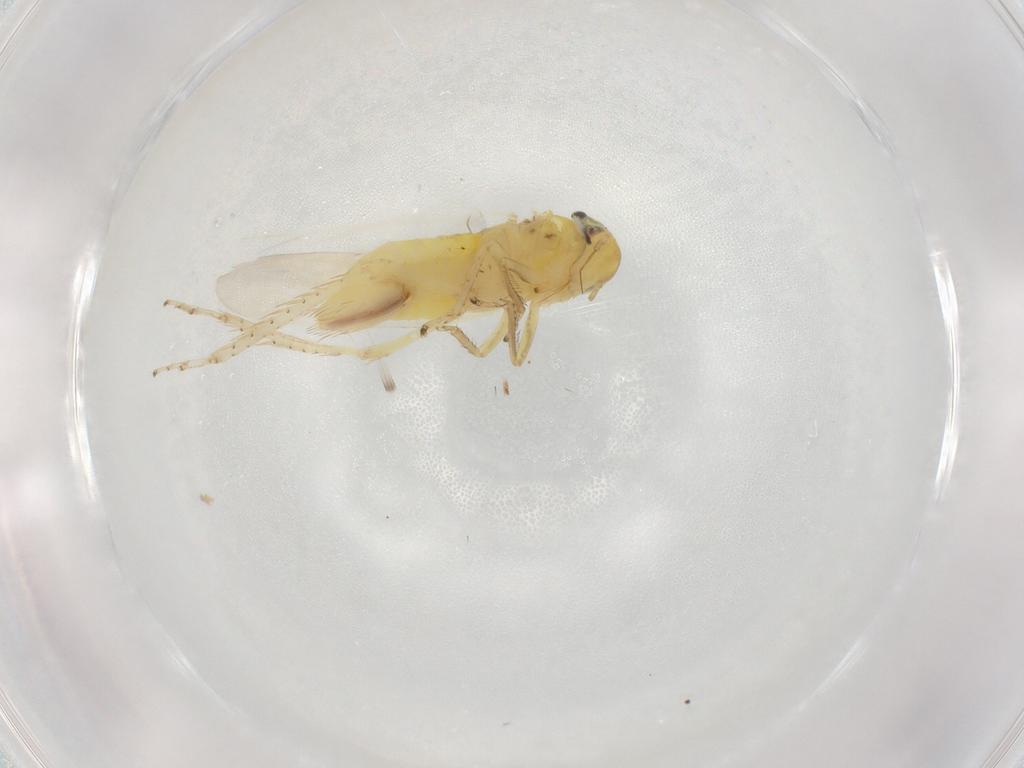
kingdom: Animalia
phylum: Arthropoda
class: Insecta
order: Hemiptera
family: Cicadellidae
